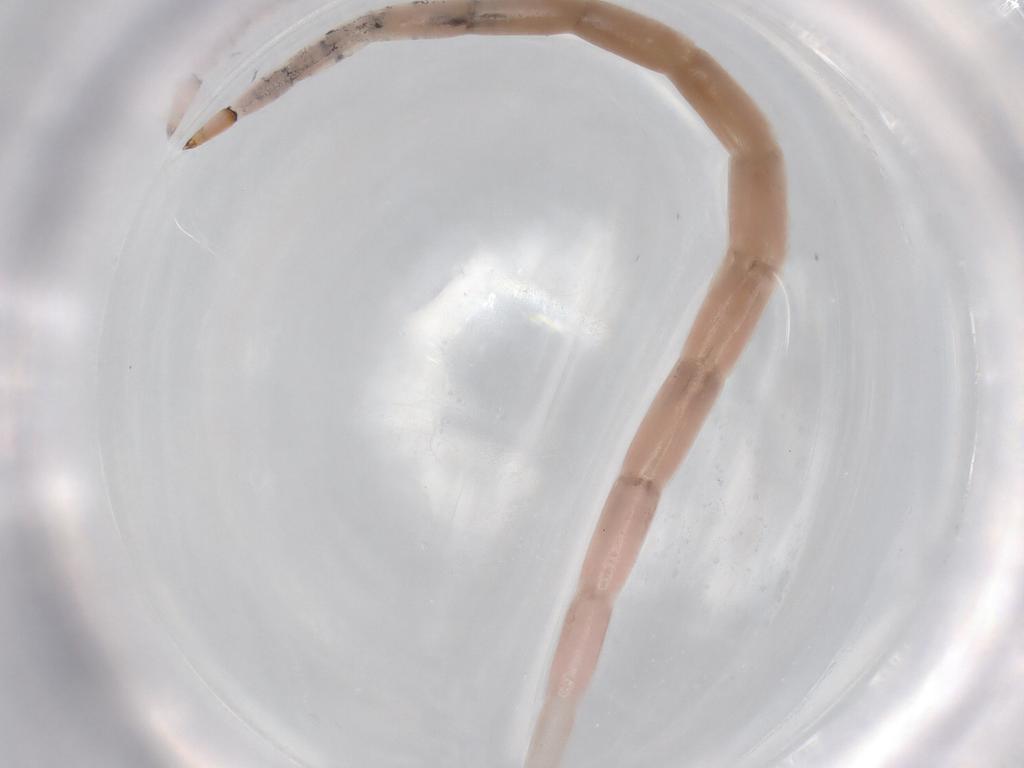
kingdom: Animalia
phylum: Arthropoda
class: Insecta
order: Diptera
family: Ceratopogonidae
